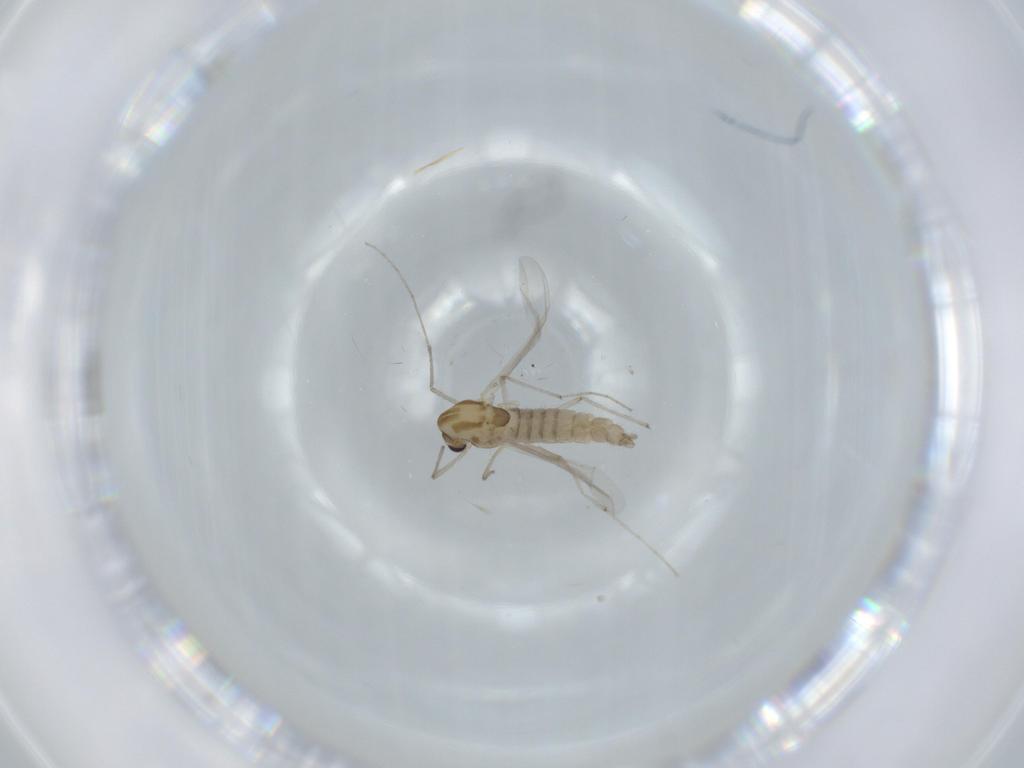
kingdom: Animalia
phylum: Arthropoda
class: Insecta
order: Diptera
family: Chironomidae
